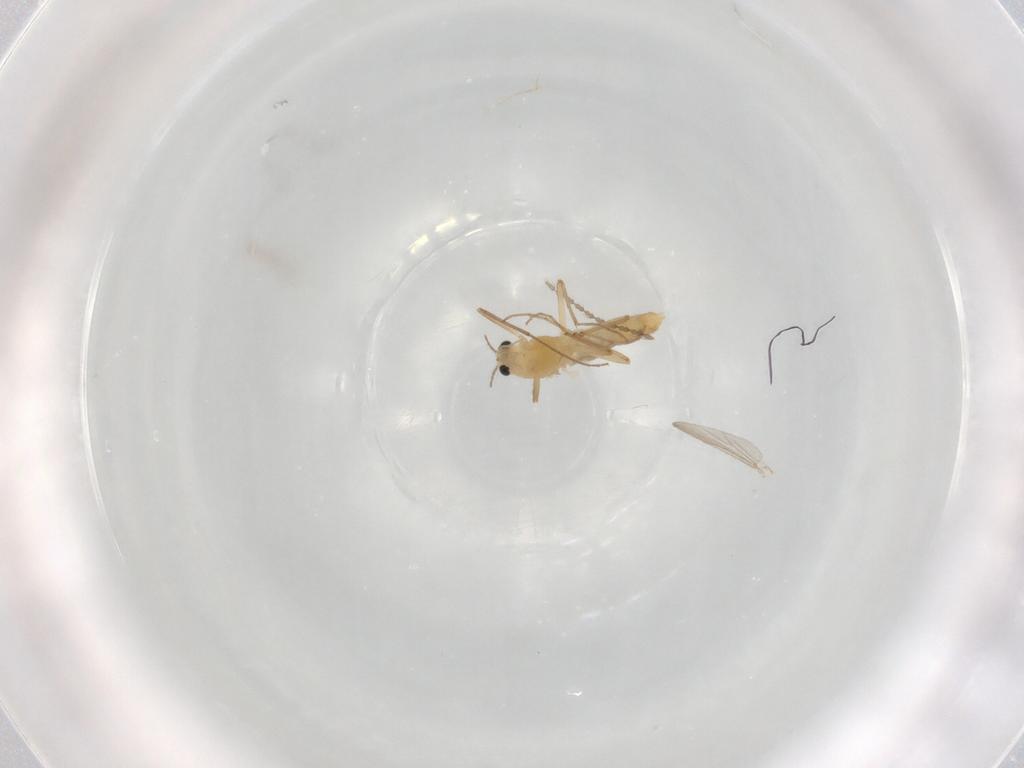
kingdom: Animalia
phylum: Arthropoda
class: Insecta
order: Diptera
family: Chironomidae
